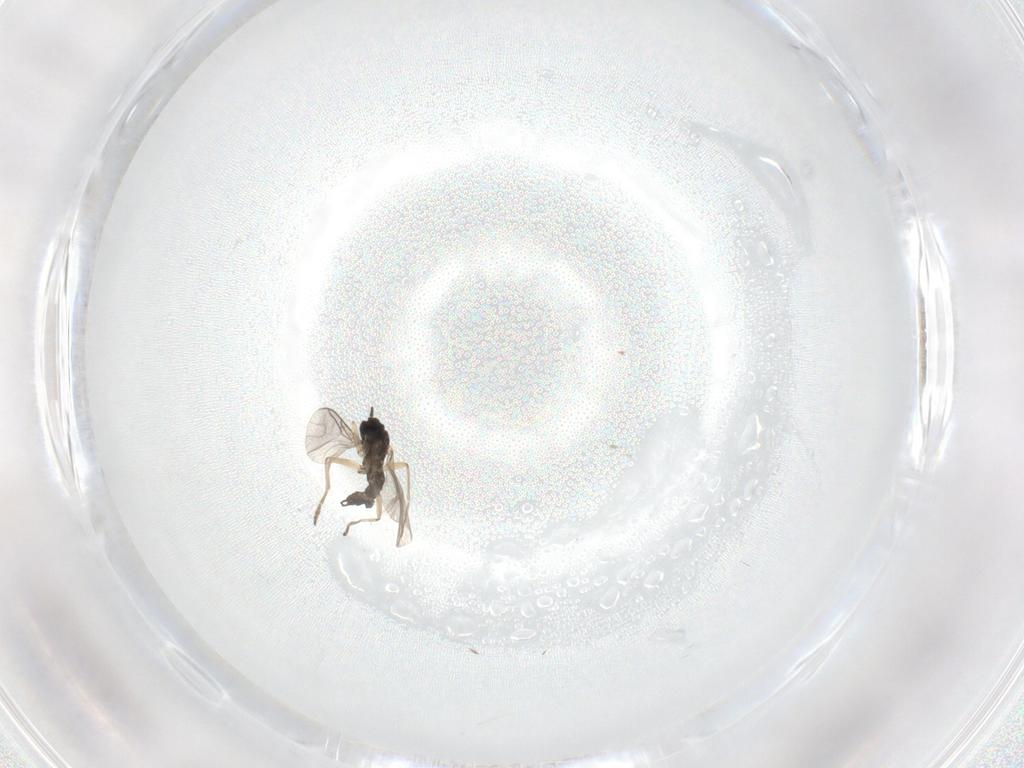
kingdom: Animalia
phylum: Arthropoda
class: Insecta
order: Diptera
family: Sciaridae
